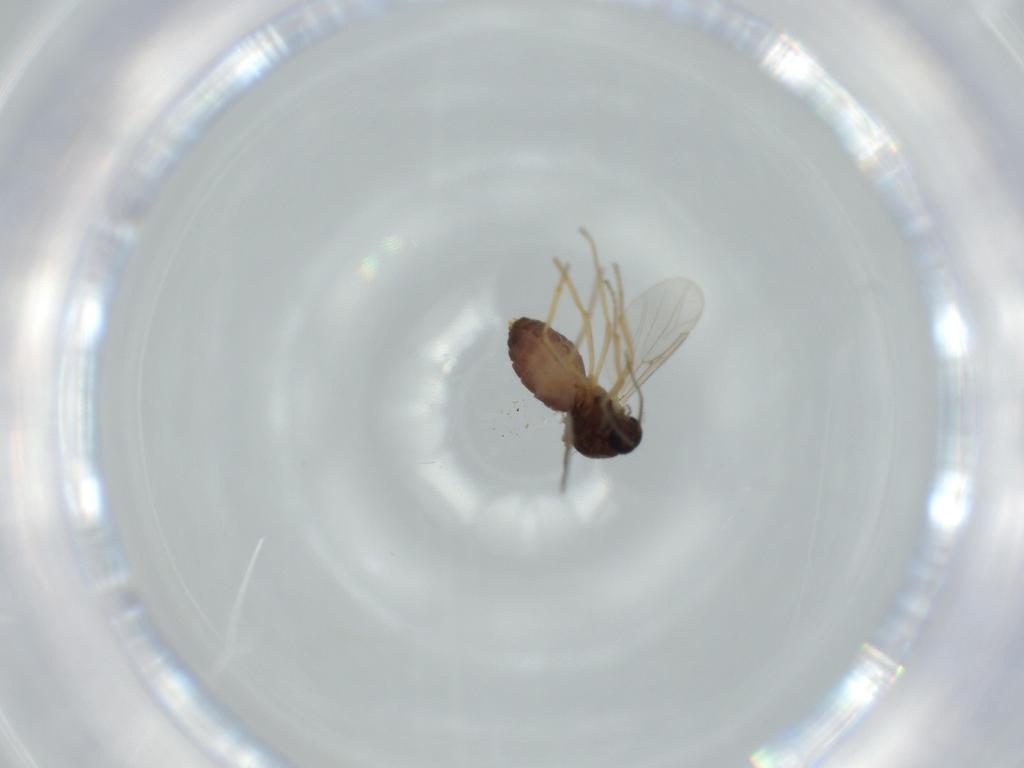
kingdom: Animalia
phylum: Arthropoda
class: Insecta
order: Diptera
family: Ceratopogonidae
